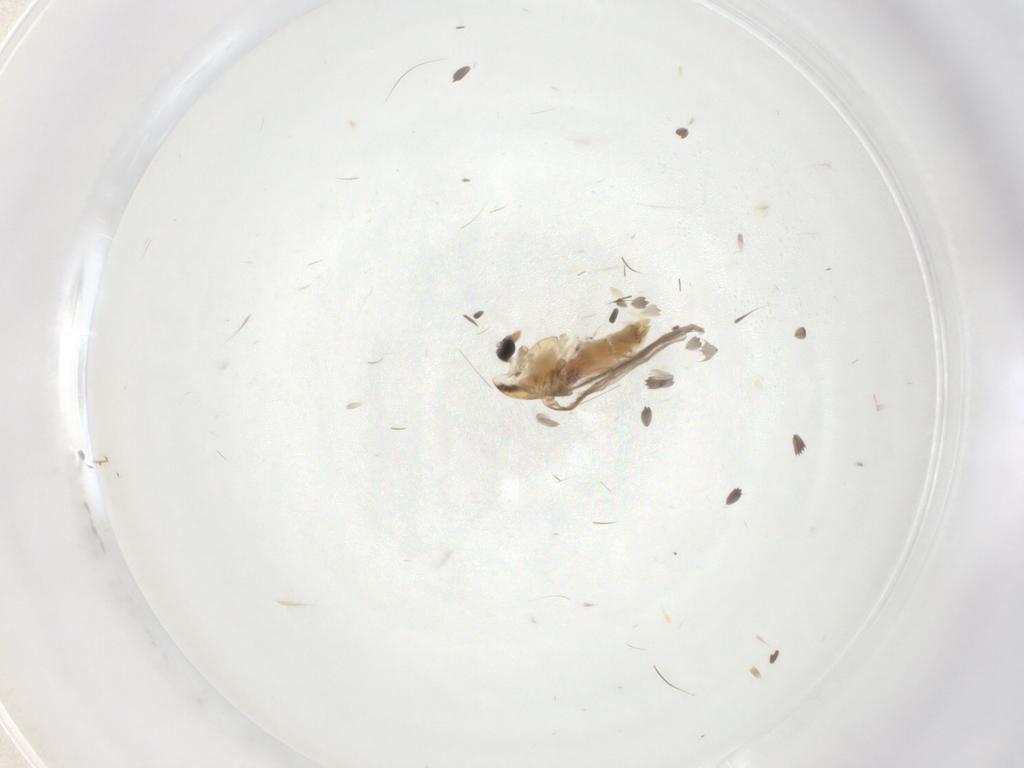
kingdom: Animalia
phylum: Arthropoda
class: Insecta
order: Diptera
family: Chironomidae
